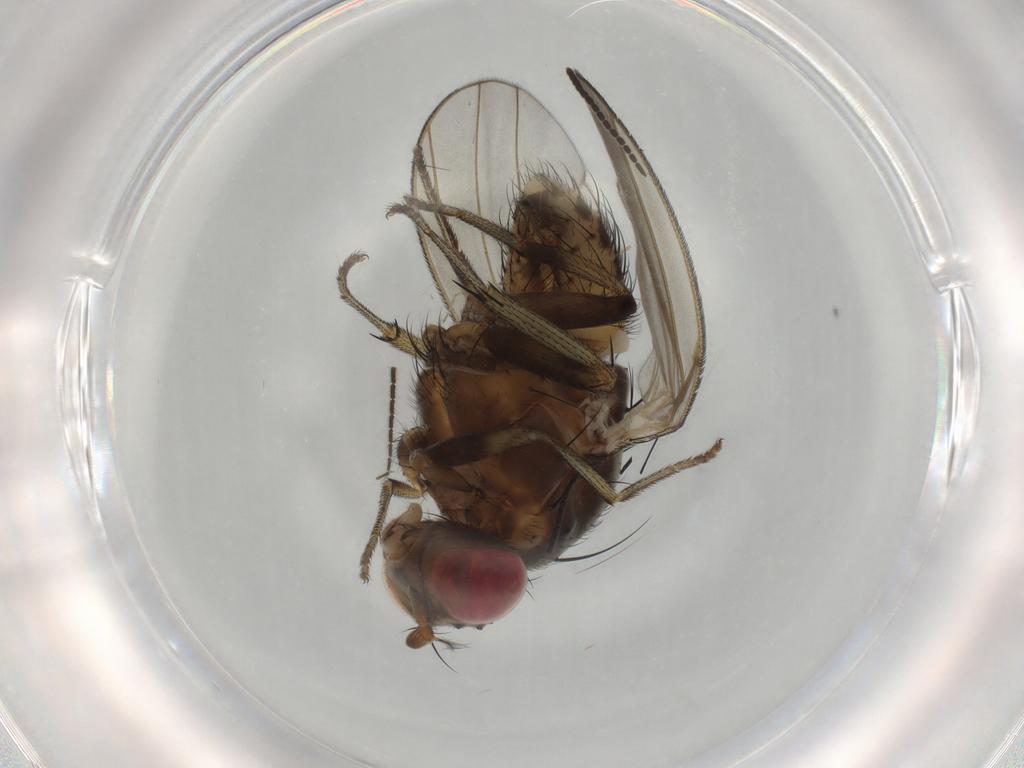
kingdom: Animalia
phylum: Arthropoda
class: Insecta
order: Diptera
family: Lauxaniidae
